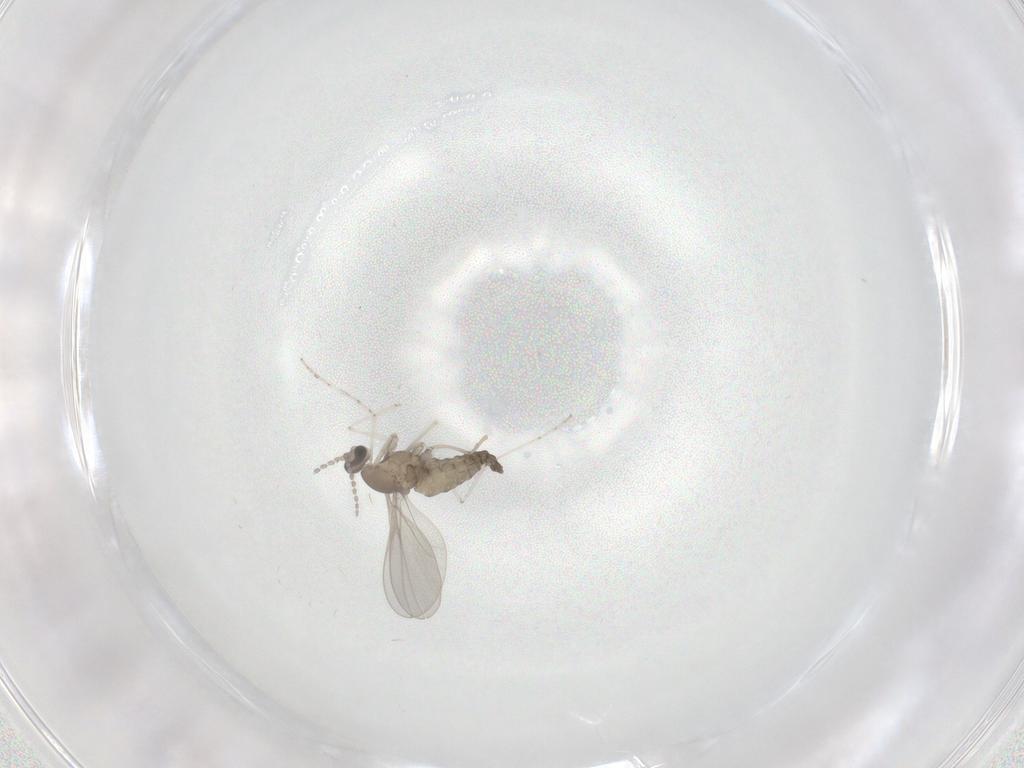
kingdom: Animalia
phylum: Arthropoda
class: Insecta
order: Diptera
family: Cecidomyiidae
